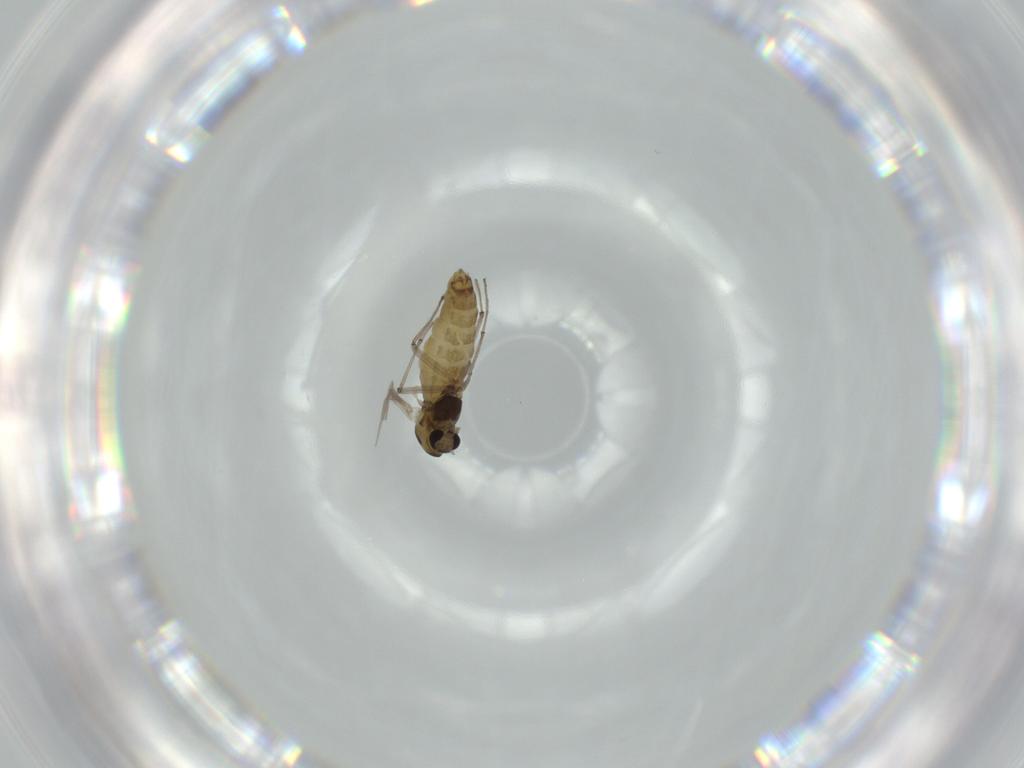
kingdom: Animalia
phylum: Arthropoda
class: Insecta
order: Diptera
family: Chironomidae
